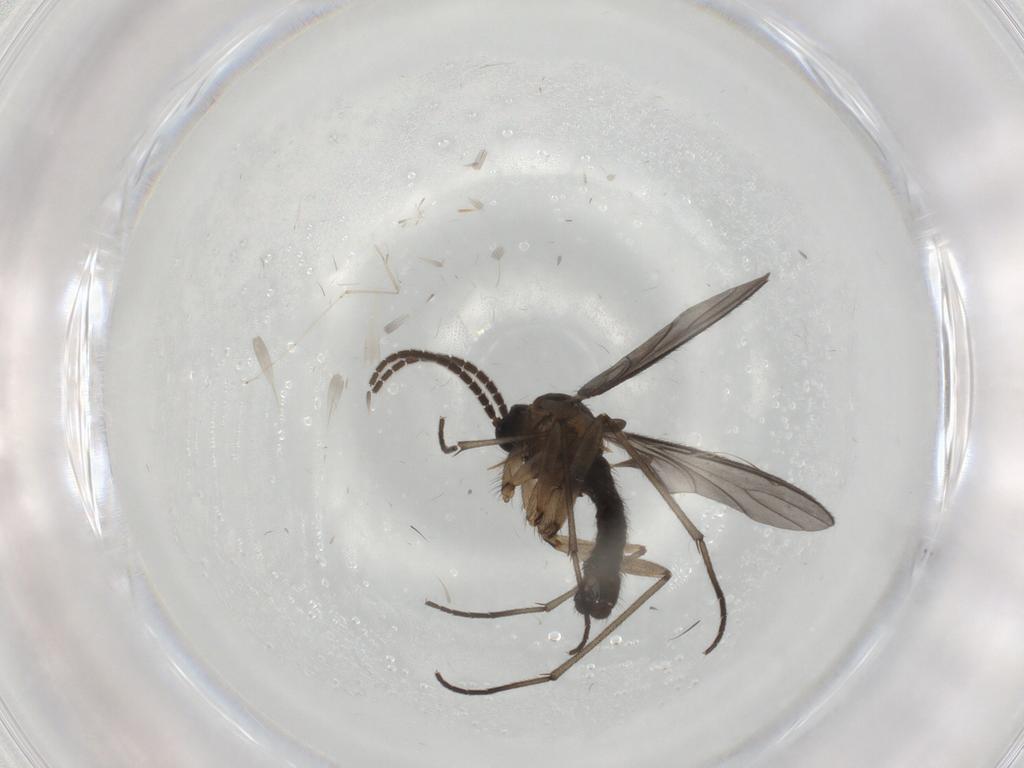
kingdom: Animalia
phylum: Arthropoda
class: Insecta
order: Diptera
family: Sciaridae
